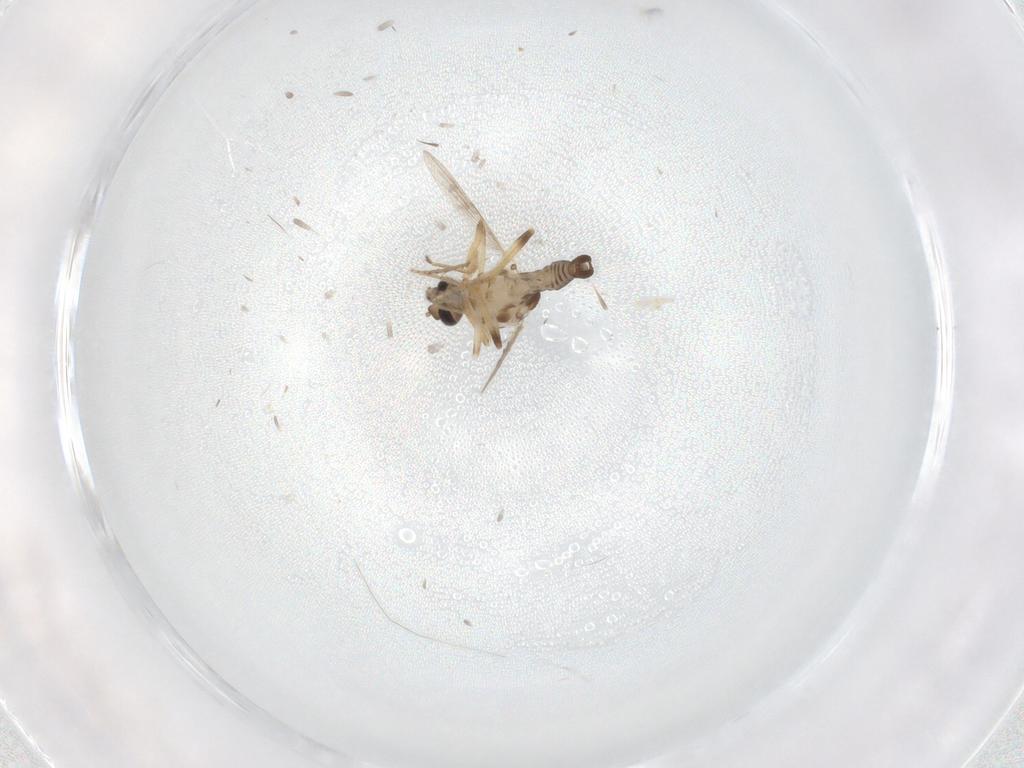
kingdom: Animalia
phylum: Arthropoda
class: Insecta
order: Diptera
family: Ceratopogonidae
